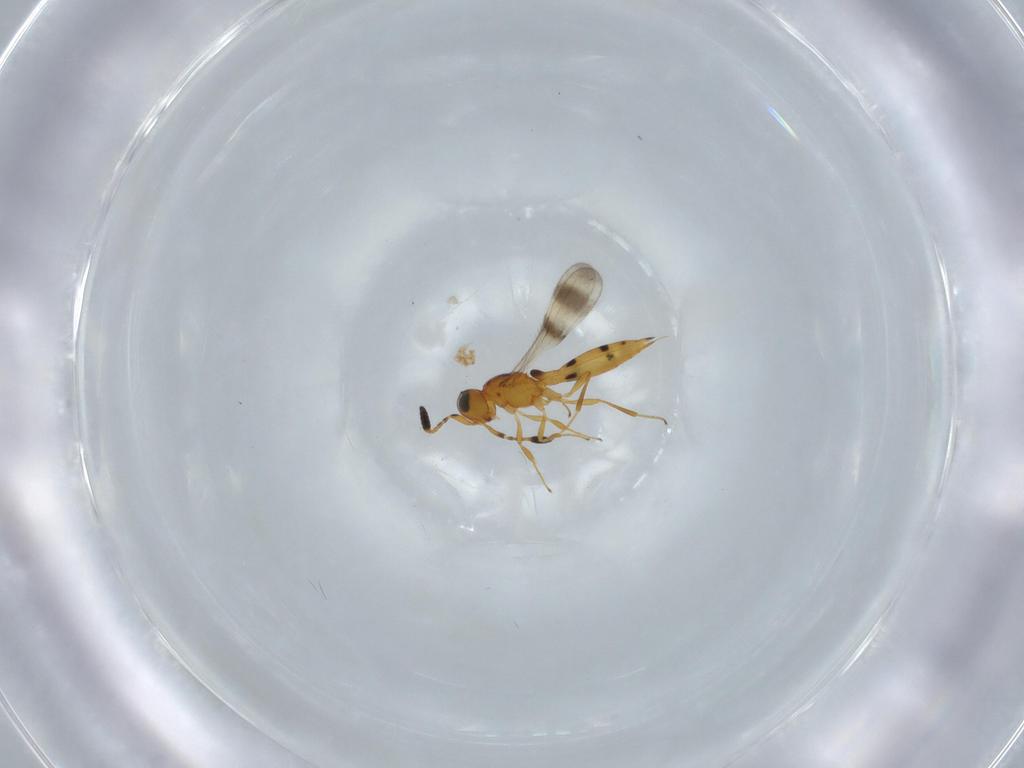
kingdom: Animalia
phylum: Arthropoda
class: Insecta
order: Hymenoptera
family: Scelionidae
